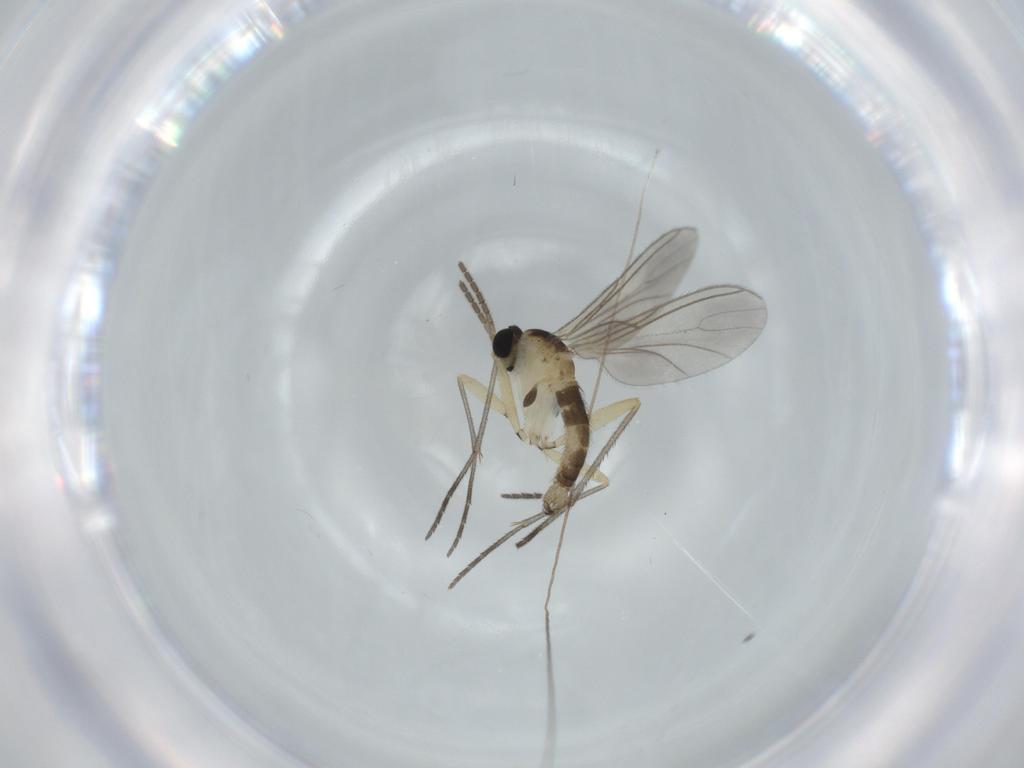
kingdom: Animalia
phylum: Arthropoda
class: Insecta
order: Diptera
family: Sciaridae
